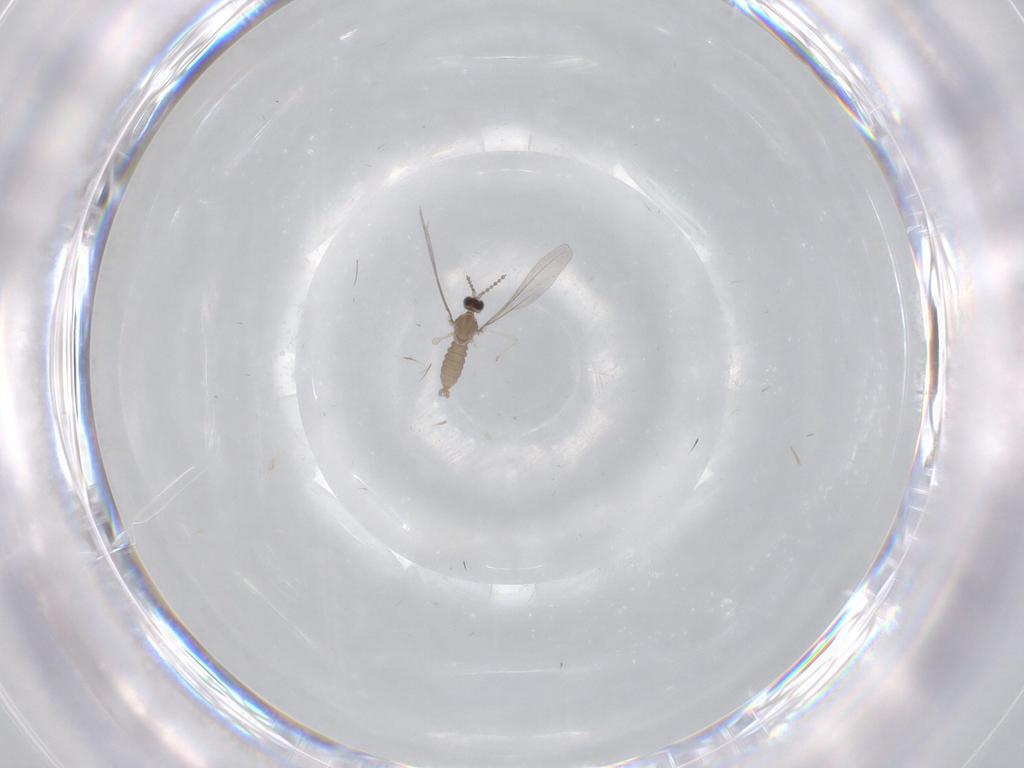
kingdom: Animalia
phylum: Arthropoda
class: Insecta
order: Diptera
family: Cecidomyiidae
